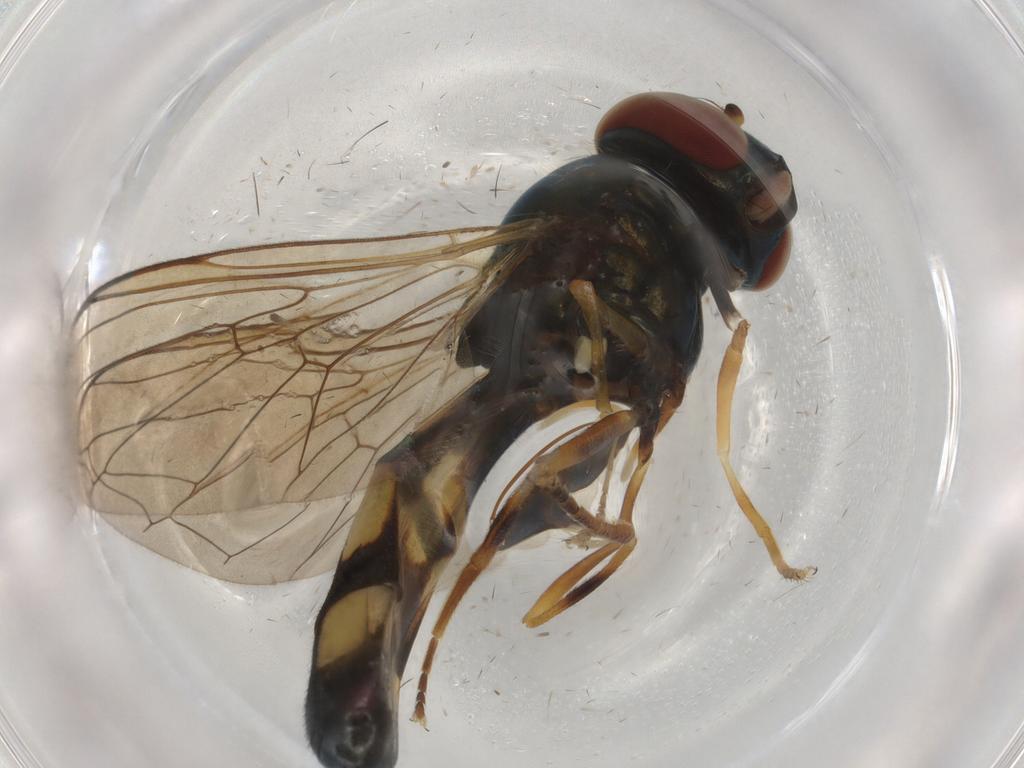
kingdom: Animalia
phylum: Arthropoda
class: Insecta
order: Diptera
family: Chironomidae
